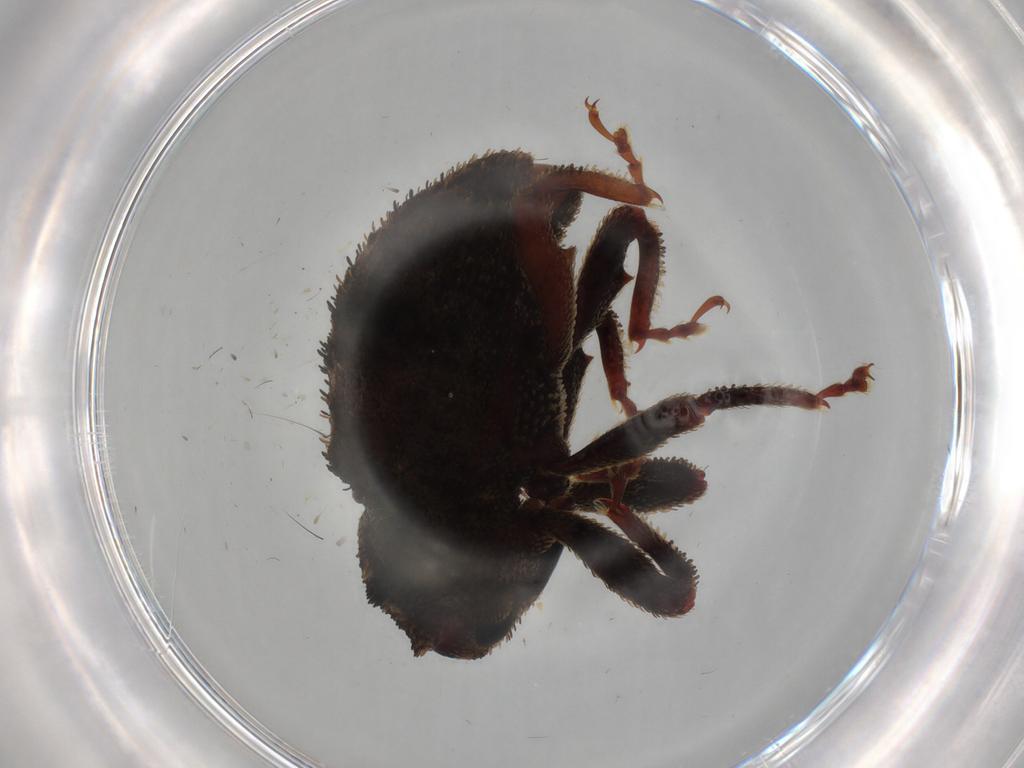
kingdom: Animalia
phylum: Arthropoda
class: Insecta
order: Coleoptera
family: Curculionidae
